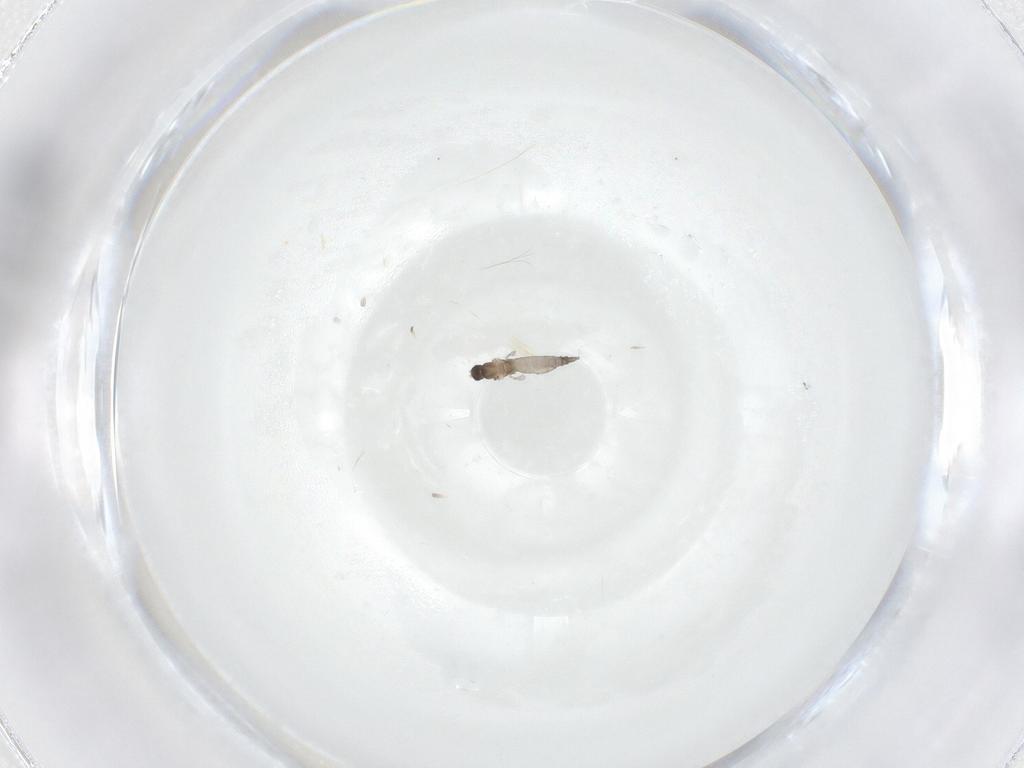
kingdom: Animalia
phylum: Arthropoda
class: Insecta
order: Diptera
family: Cecidomyiidae
